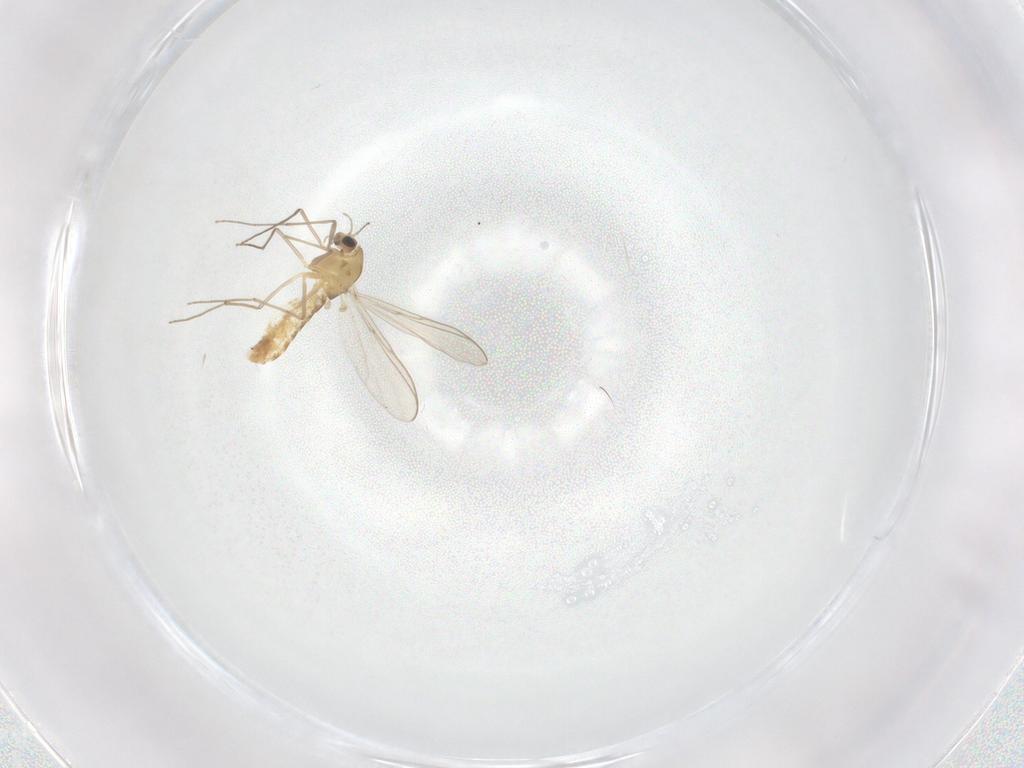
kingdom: Animalia
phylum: Arthropoda
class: Insecta
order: Diptera
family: Chironomidae
